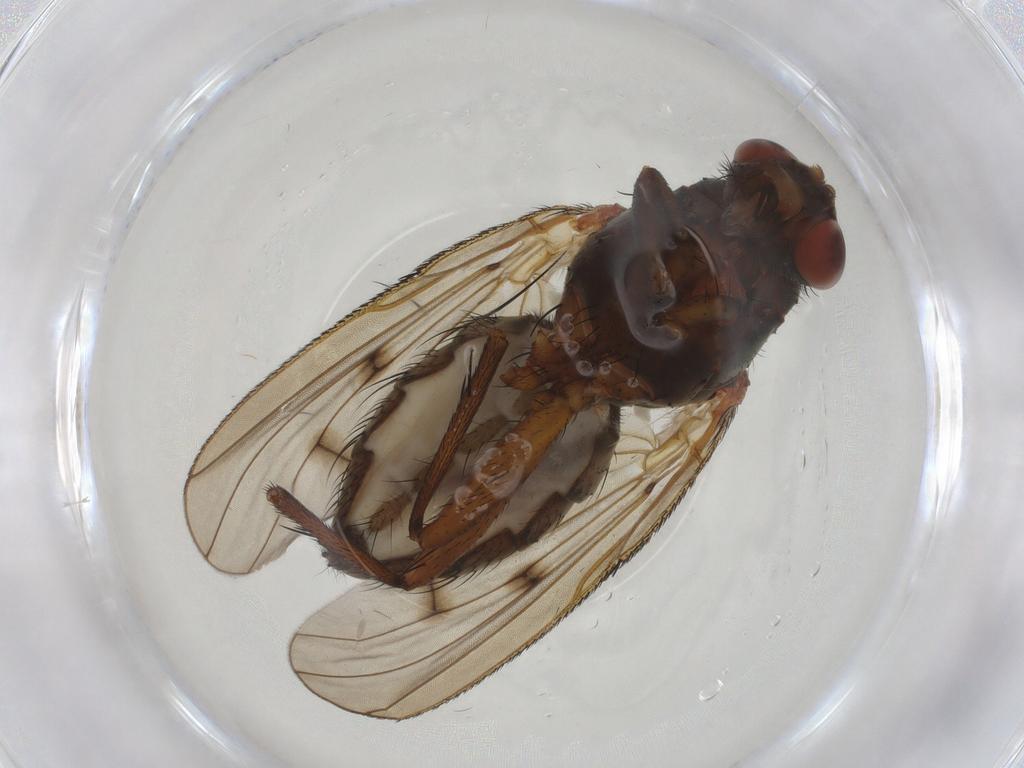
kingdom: Animalia
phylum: Arthropoda
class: Insecta
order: Diptera
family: Anthomyiidae
